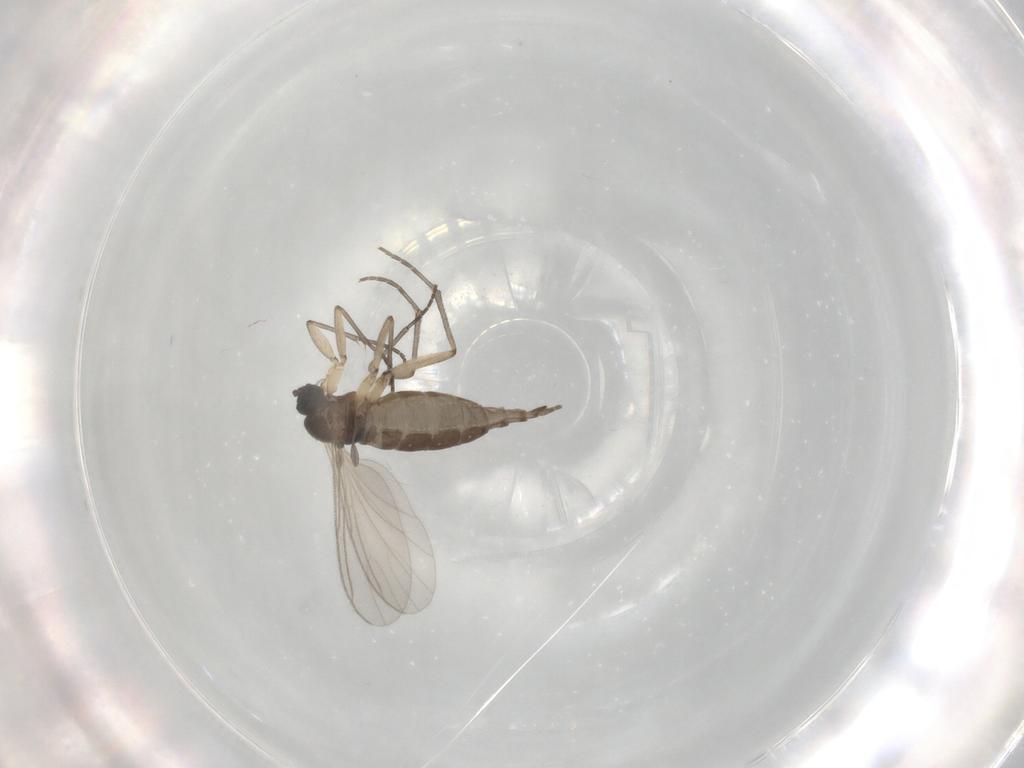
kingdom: Animalia
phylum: Arthropoda
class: Insecta
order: Diptera
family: Sciaridae
